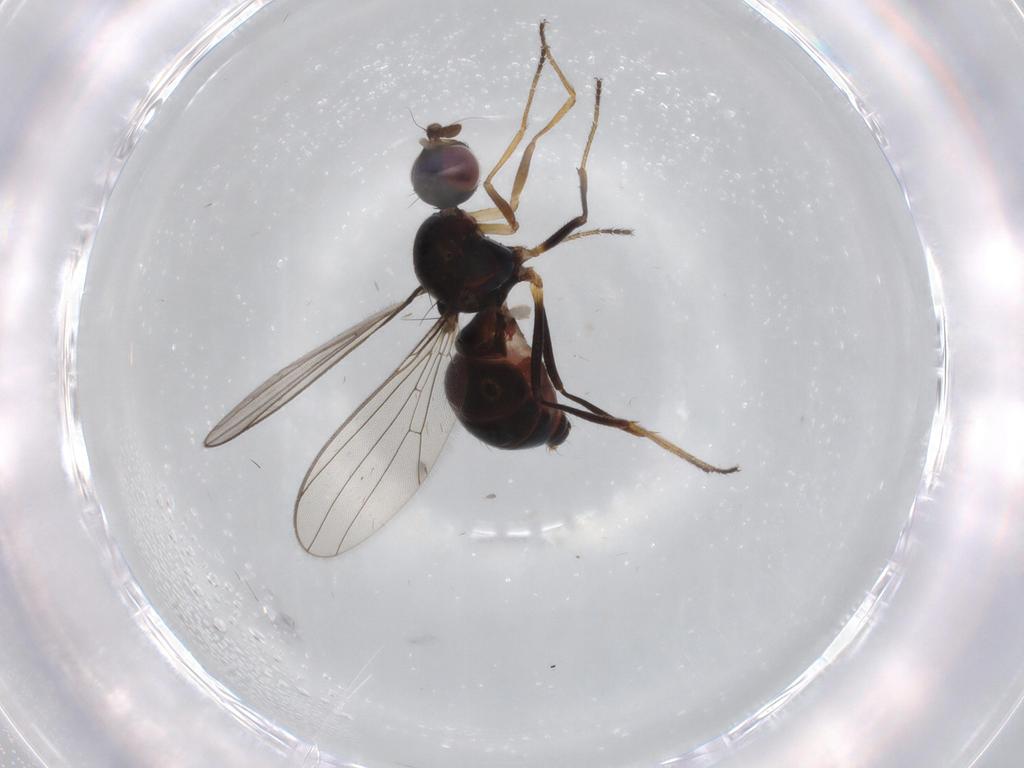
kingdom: Animalia
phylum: Arthropoda
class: Insecta
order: Diptera
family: Sepsidae
